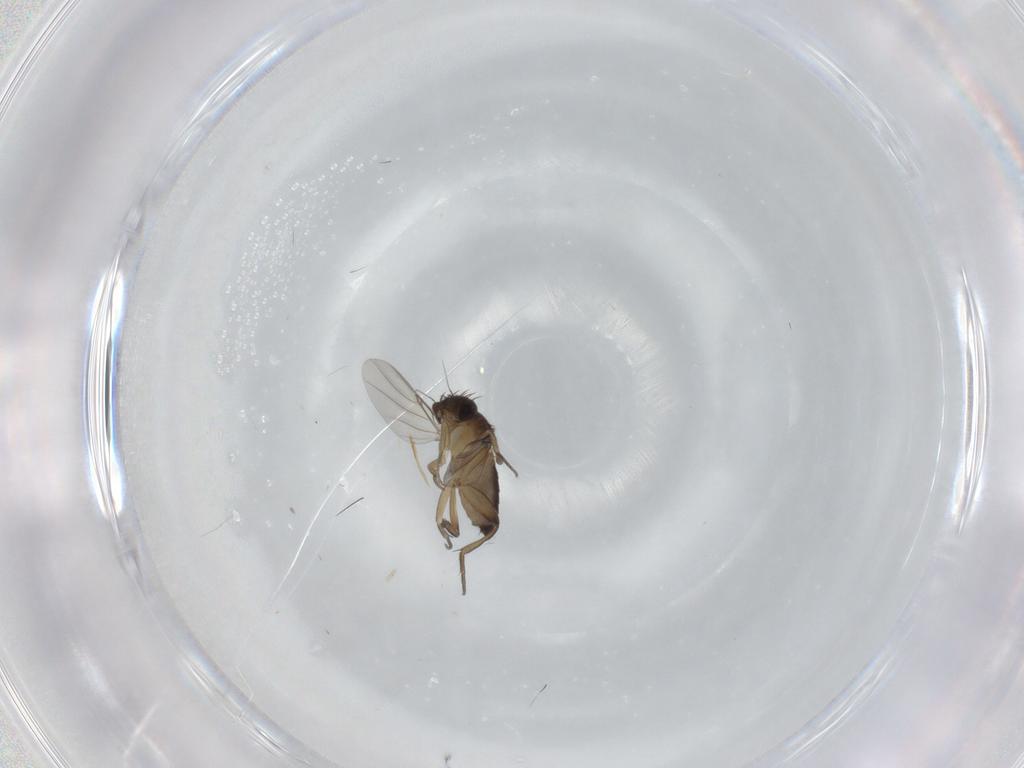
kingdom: Animalia
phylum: Arthropoda
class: Insecta
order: Diptera
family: Phoridae
